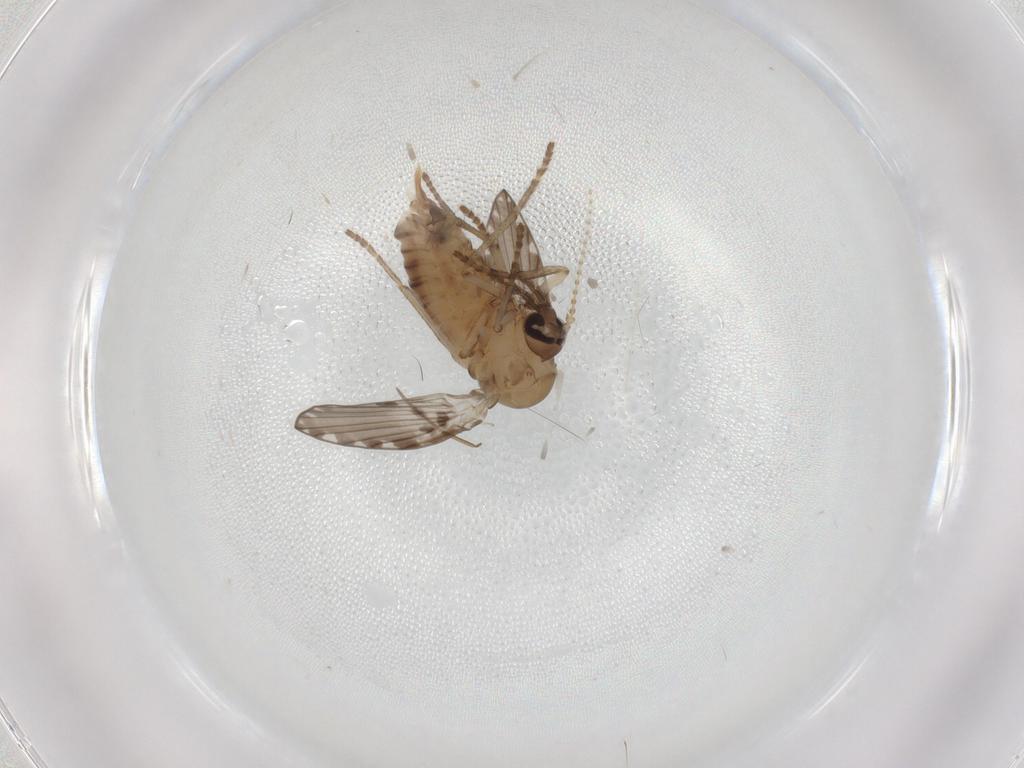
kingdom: Animalia
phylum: Arthropoda
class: Insecta
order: Diptera
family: Psychodidae
